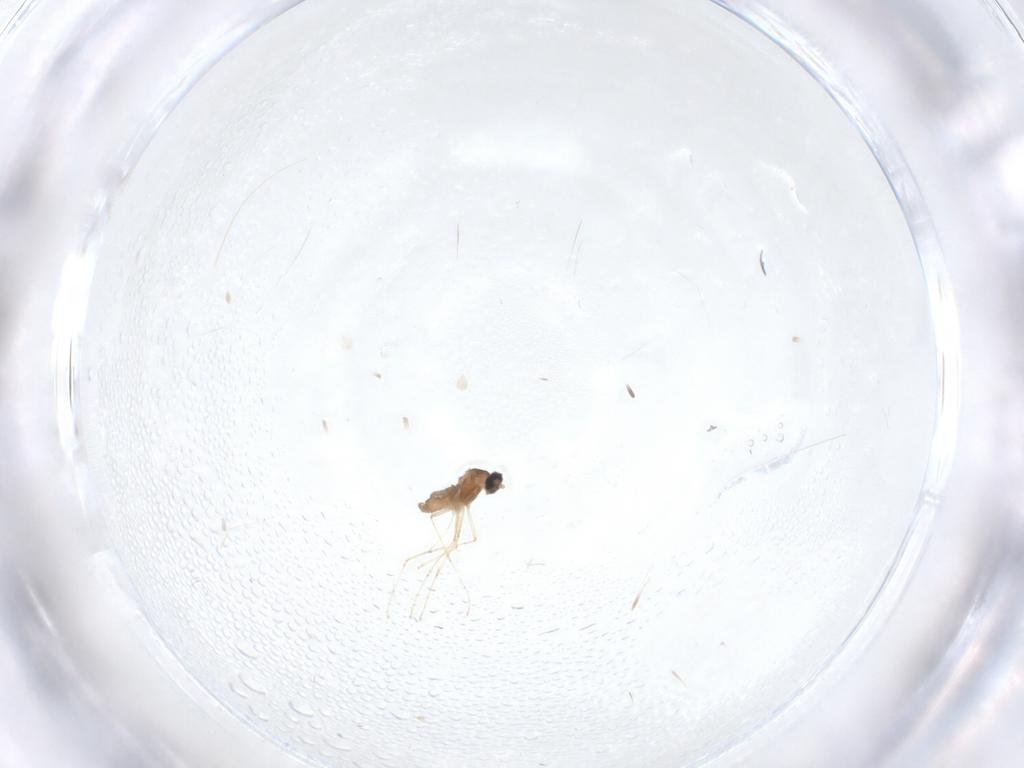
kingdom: Animalia
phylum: Arthropoda
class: Insecta
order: Diptera
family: Cecidomyiidae
